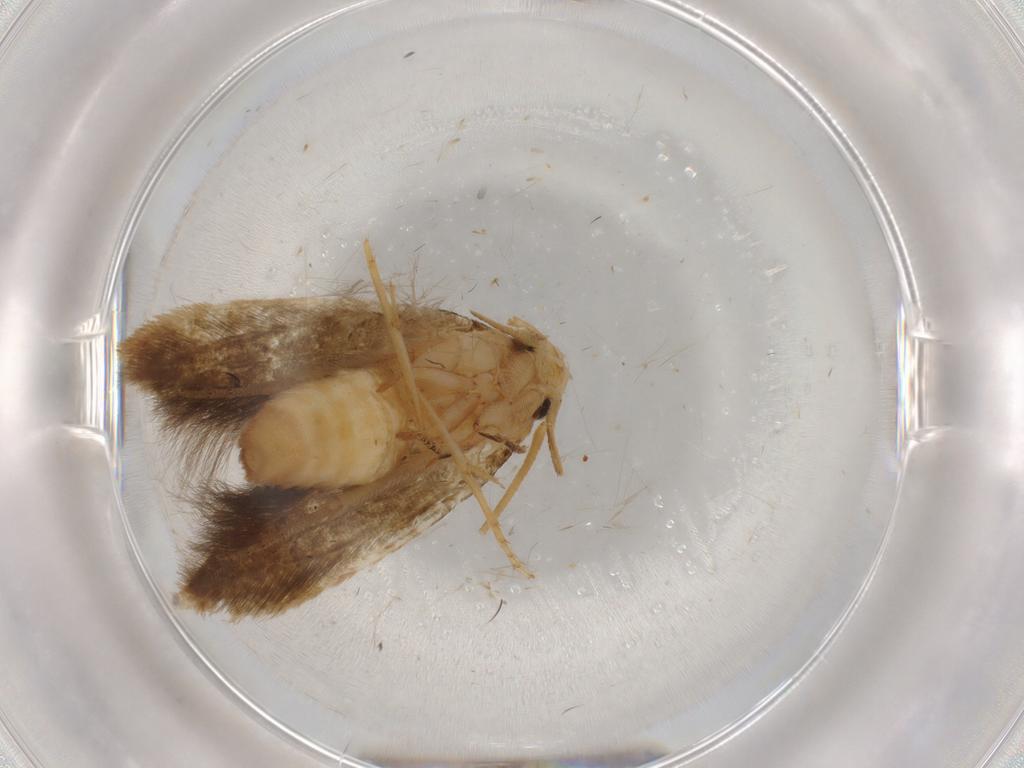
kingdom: Animalia
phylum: Arthropoda
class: Insecta
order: Lepidoptera
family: Tineidae
